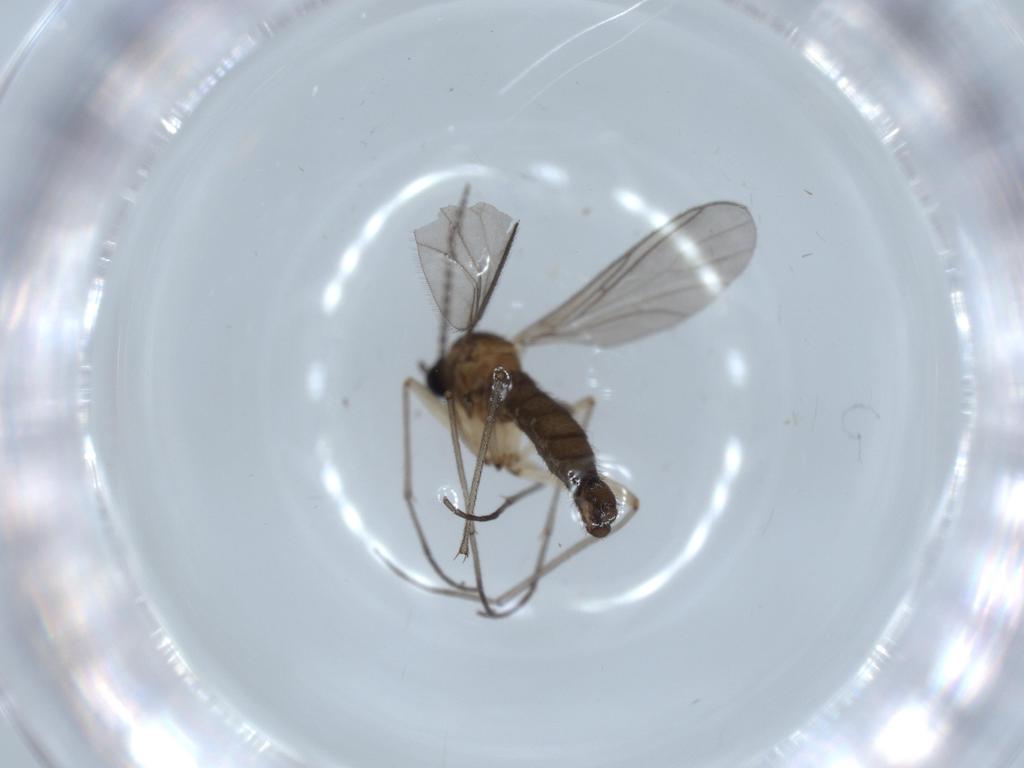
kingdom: Animalia
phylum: Arthropoda
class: Insecta
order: Diptera
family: Sciaridae
